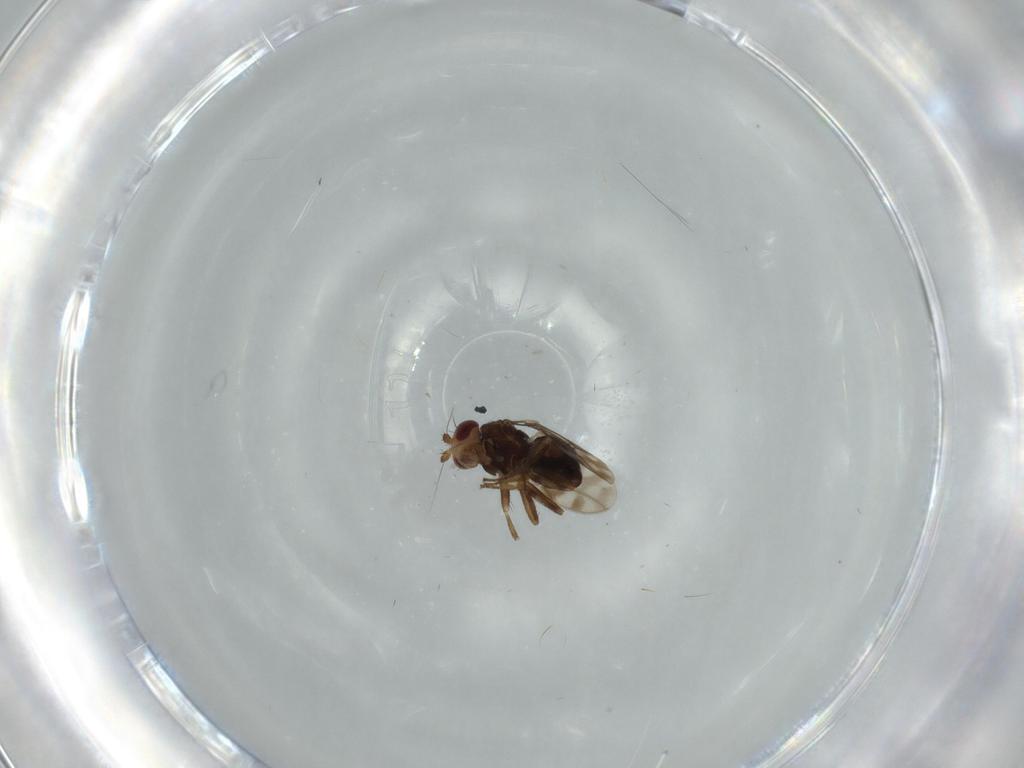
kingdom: Animalia
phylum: Arthropoda
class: Insecta
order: Diptera
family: Sphaeroceridae
